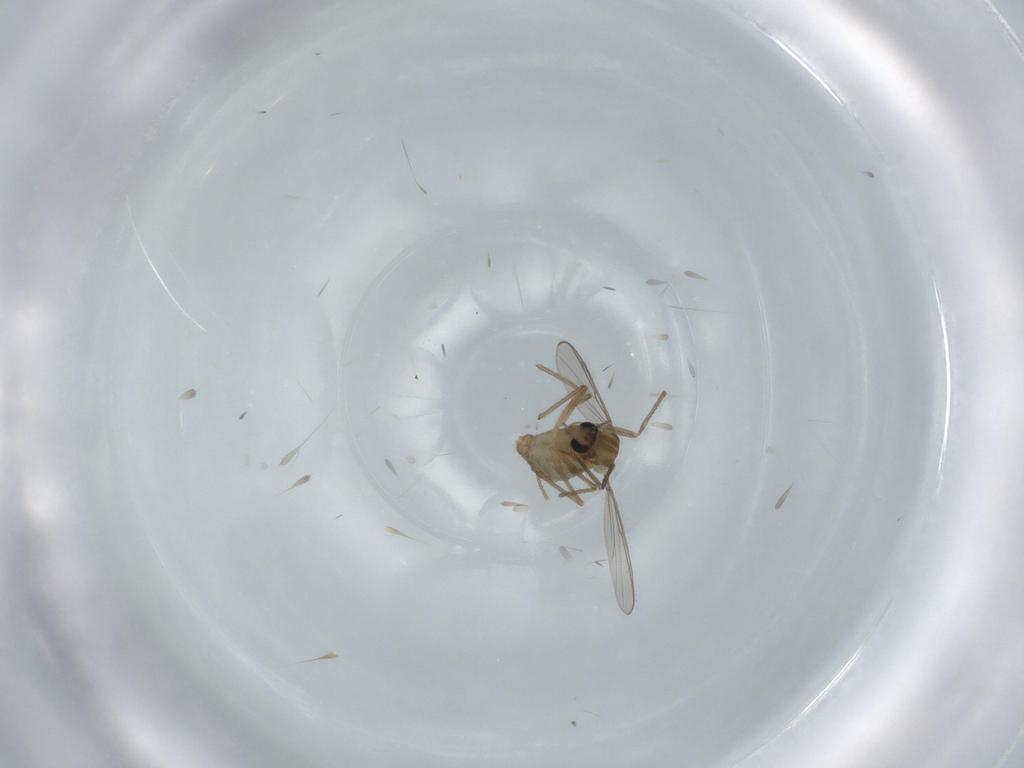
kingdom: Animalia
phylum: Arthropoda
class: Insecta
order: Diptera
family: Chironomidae
